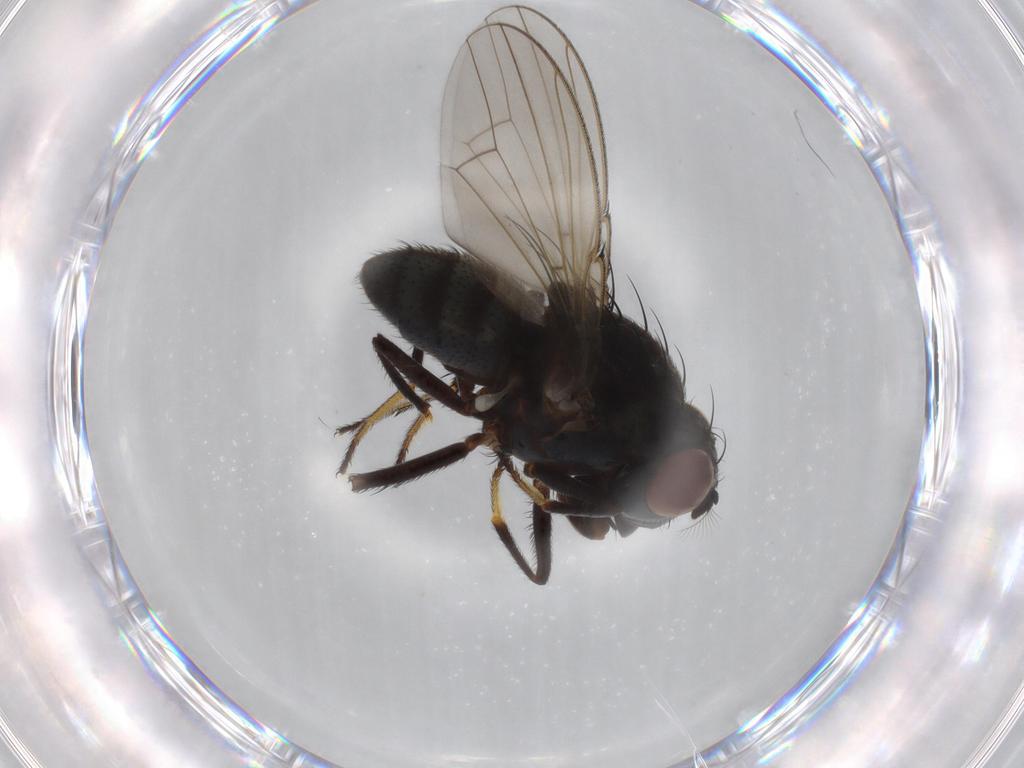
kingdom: Animalia
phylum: Arthropoda
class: Insecta
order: Diptera
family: Ephydridae
